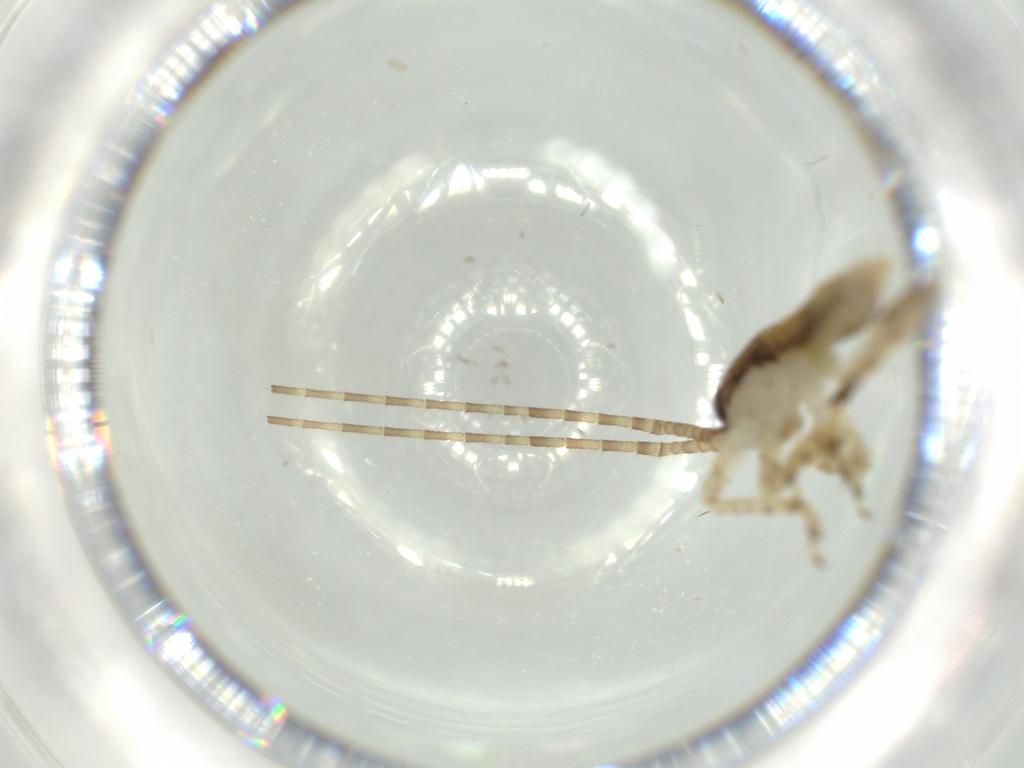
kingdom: Animalia
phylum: Arthropoda
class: Insecta
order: Orthoptera
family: Gryllidae
